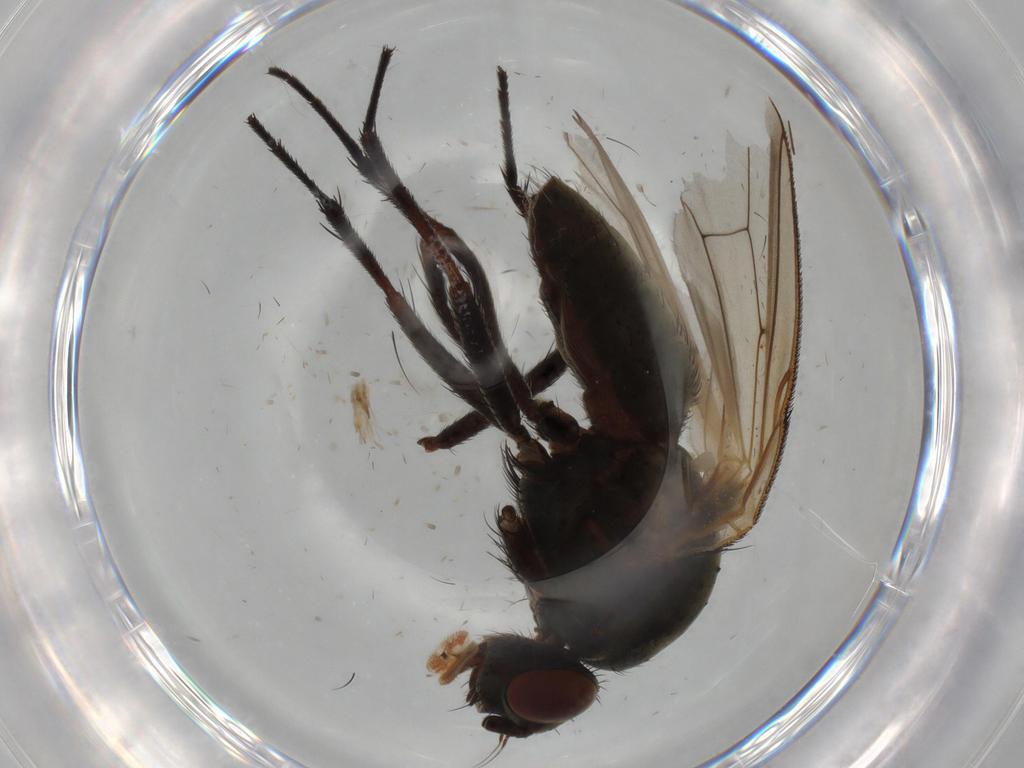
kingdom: Animalia
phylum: Arthropoda
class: Insecta
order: Diptera
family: Anthomyiidae
